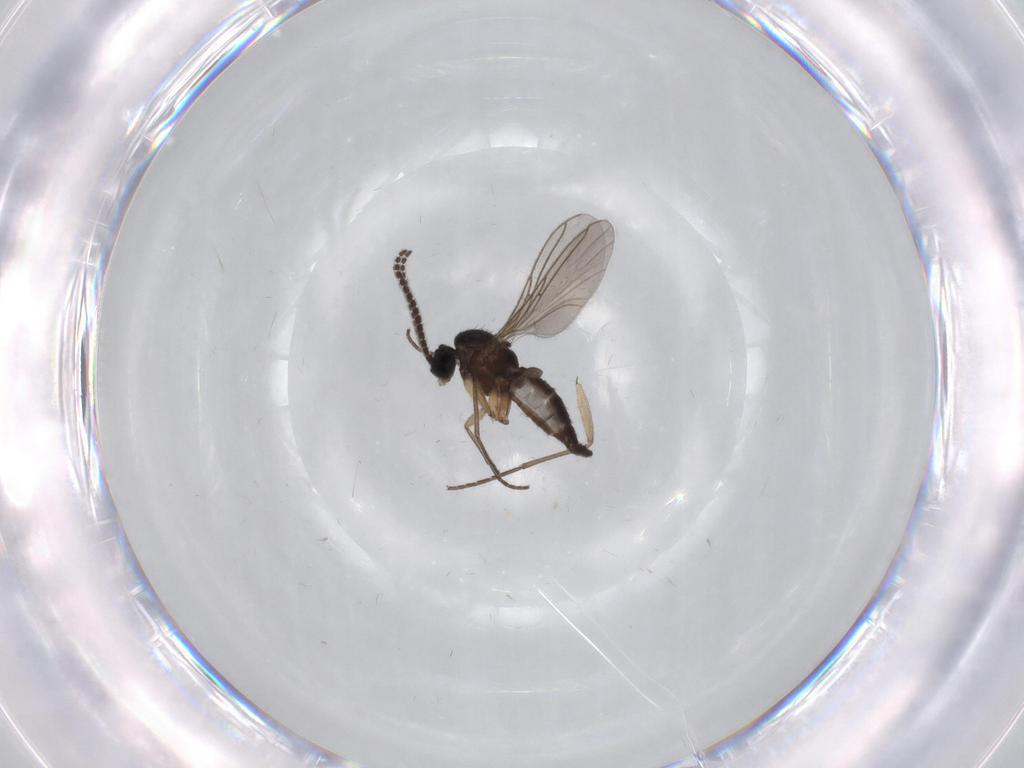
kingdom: Animalia
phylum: Arthropoda
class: Insecta
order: Diptera
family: Sciaridae
